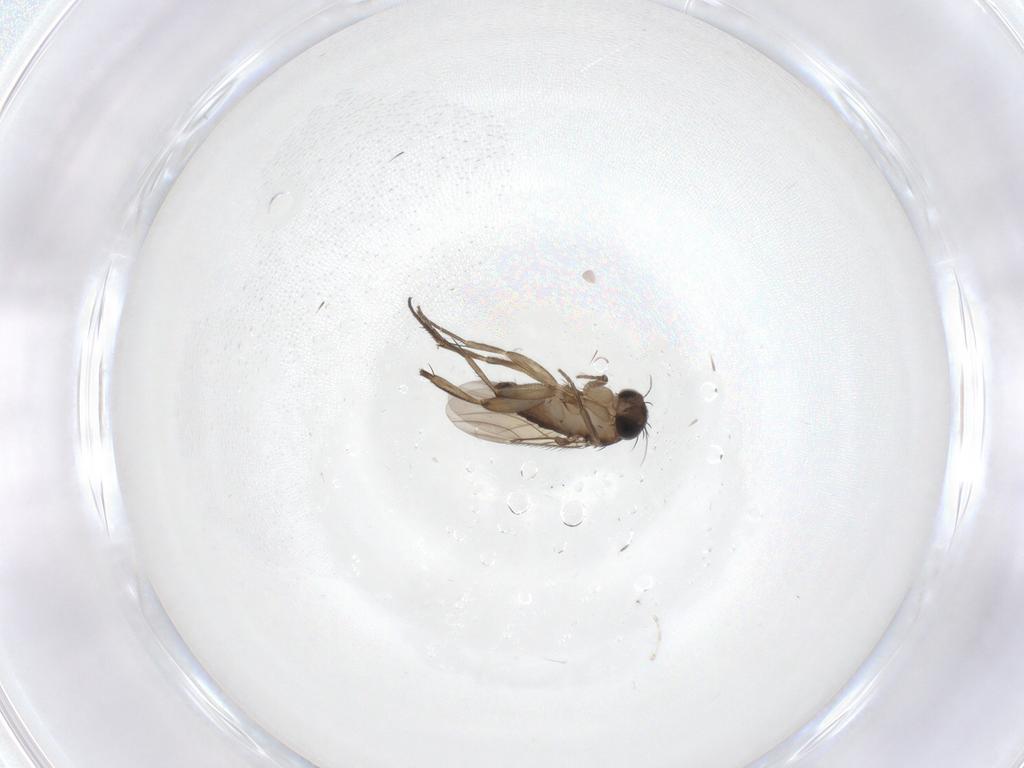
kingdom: Animalia
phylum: Arthropoda
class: Insecta
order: Diptera
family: Phoridae
